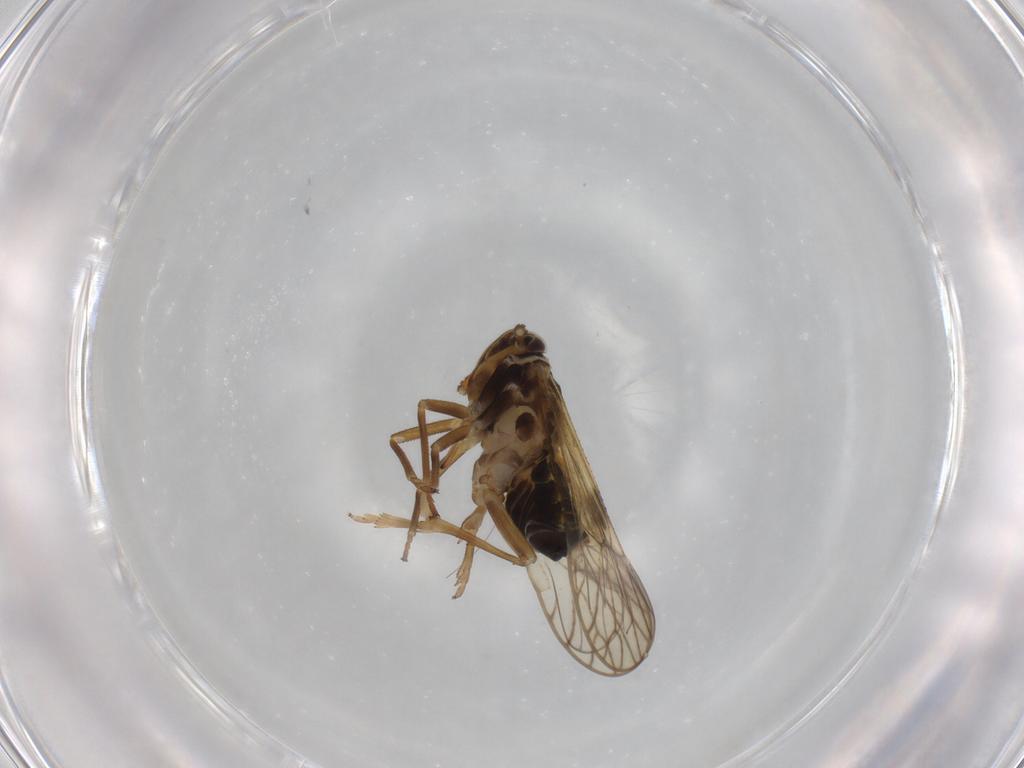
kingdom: Animalia
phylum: Arthropoda
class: Insecta
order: Hemiptera
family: Delphacidae
